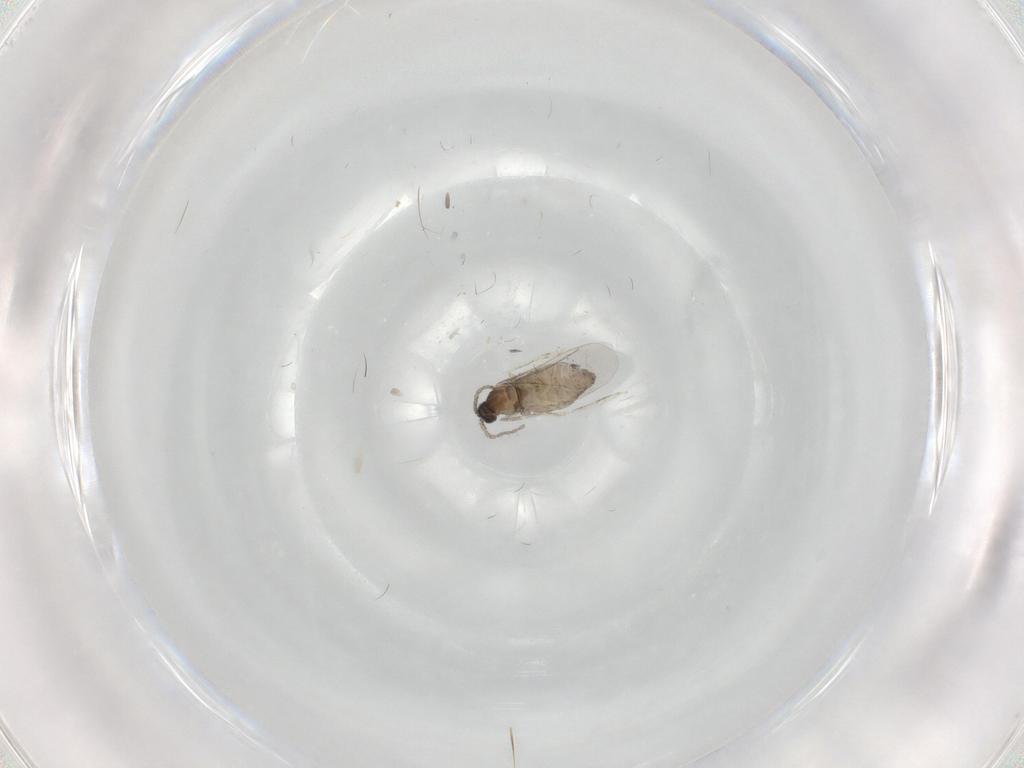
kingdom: Animalia
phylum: Arthropoda
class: Insecta
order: Diptera
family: Cecidomyiidae
